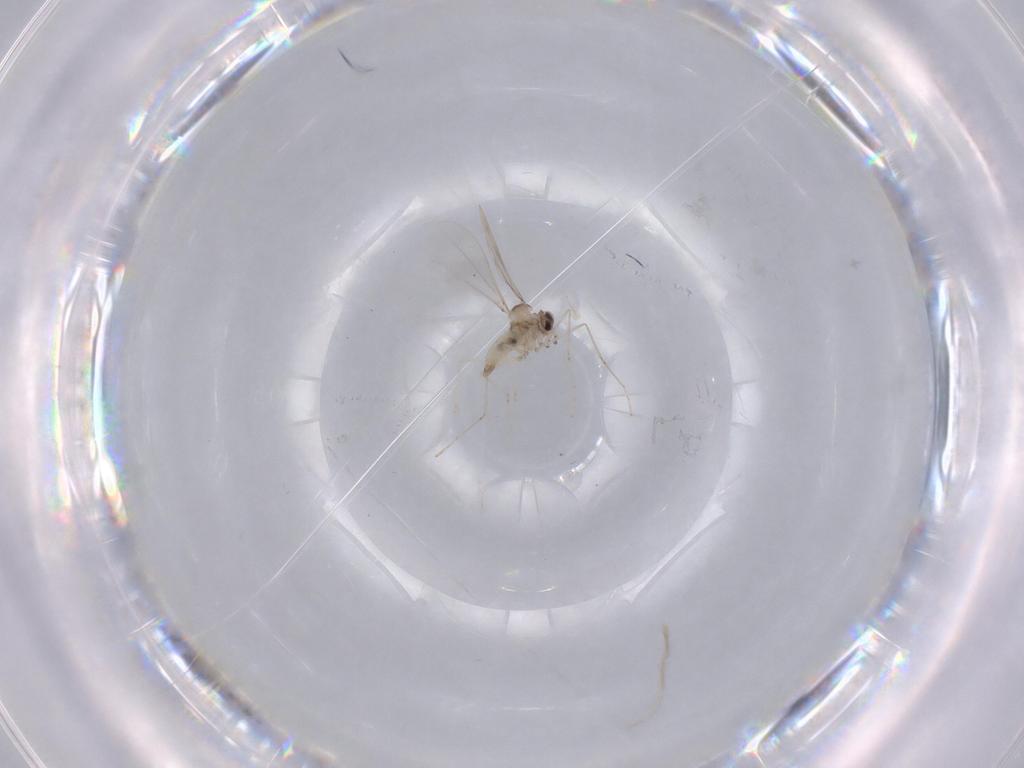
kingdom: Animalia
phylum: Arthropoda
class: Insecta
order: Diptera
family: Cecidomyiidae
